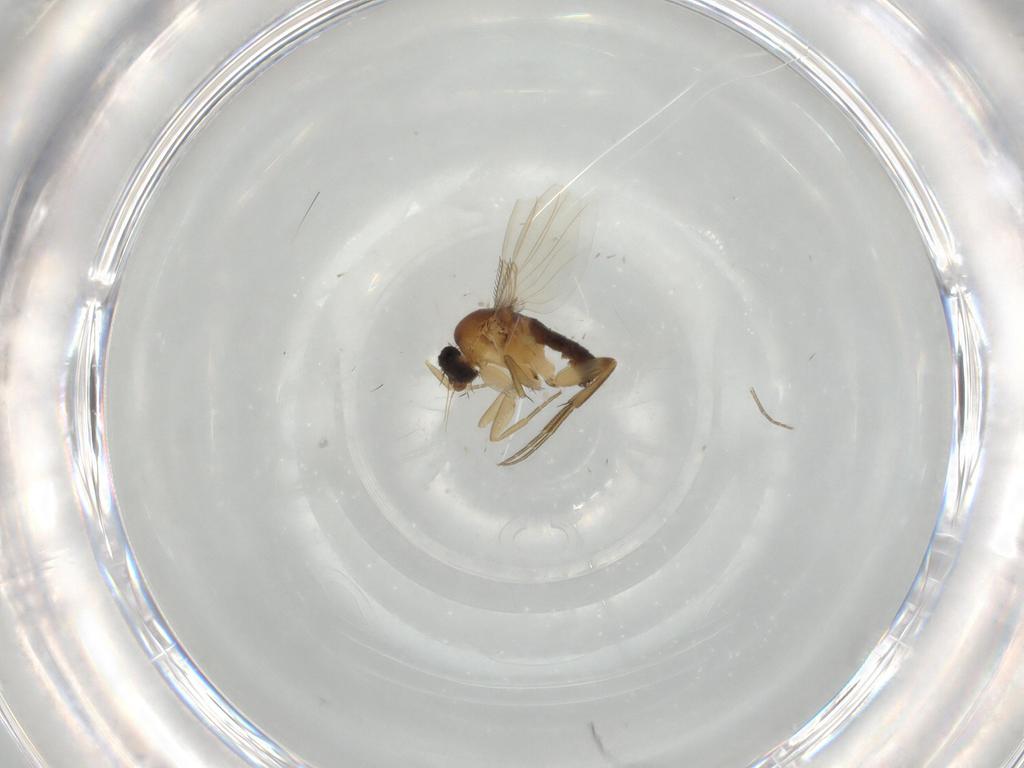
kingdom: Animalia
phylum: Arthropoda
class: Insecta
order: Diptera
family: Phoridae
